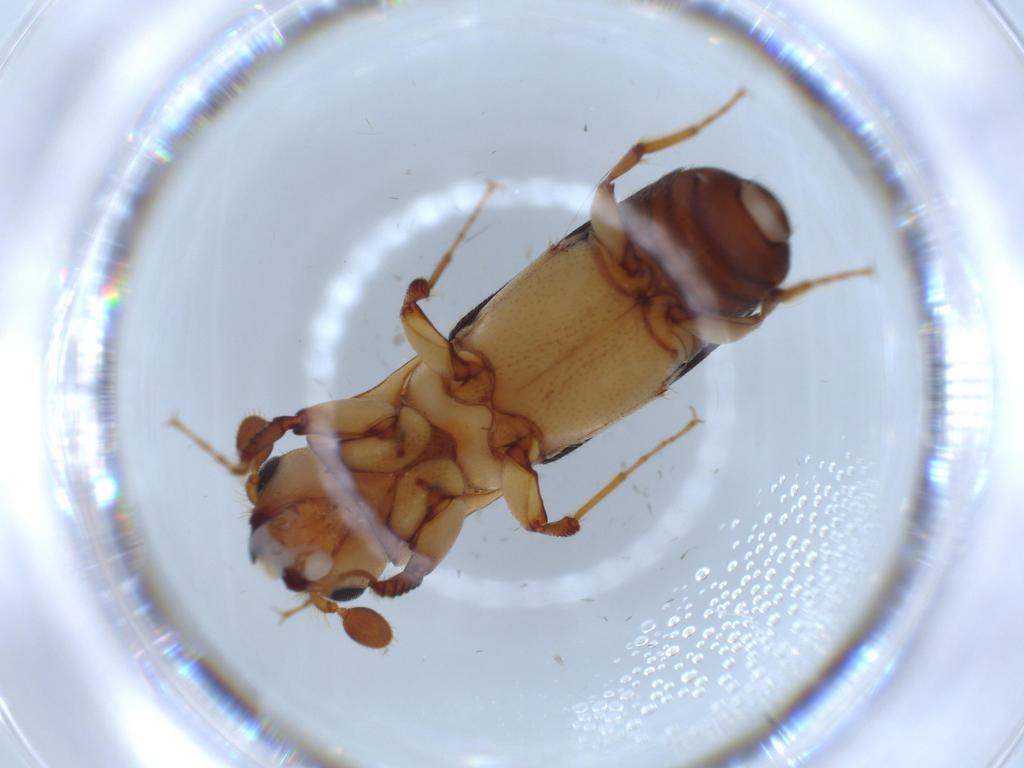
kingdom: Animalia
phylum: Arthropoda
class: Insecta
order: Coleoptera
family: Curculionidae
